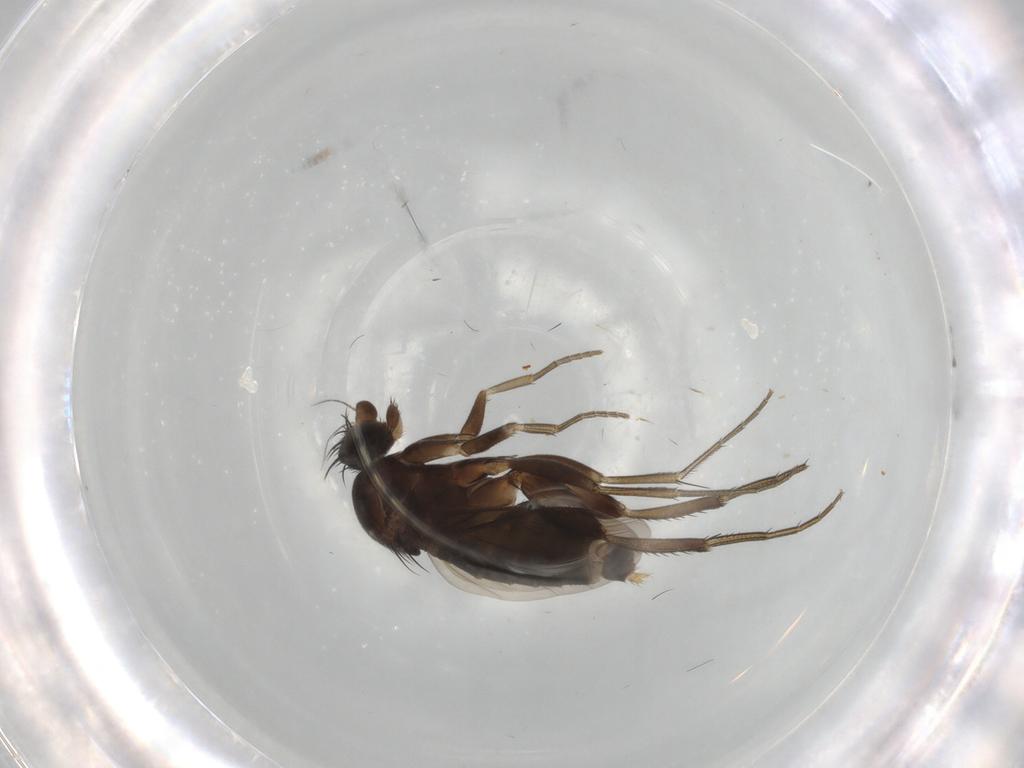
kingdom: Animalia
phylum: Arthropoda
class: Insecta
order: Diptera
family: Phoridae
